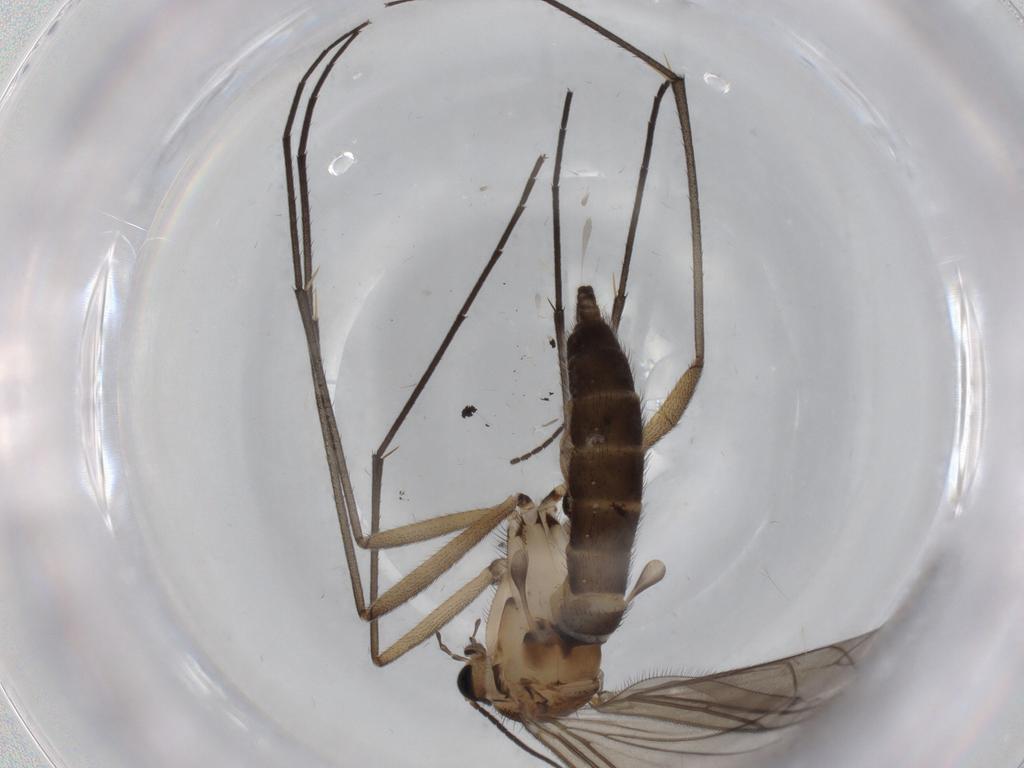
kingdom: Animalia
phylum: Arthropoda
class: Insecta
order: Diptera
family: Sciaridae
